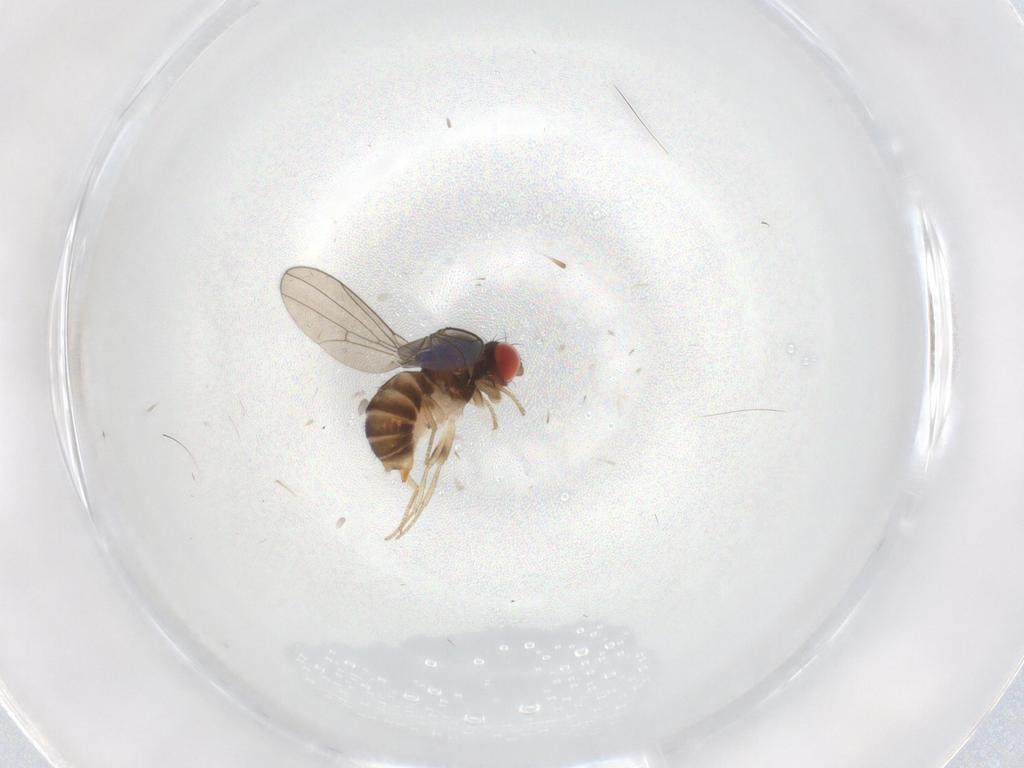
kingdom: Animalia
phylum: Arthropoda
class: Insecta
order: Diptera
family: Drosophilidae
